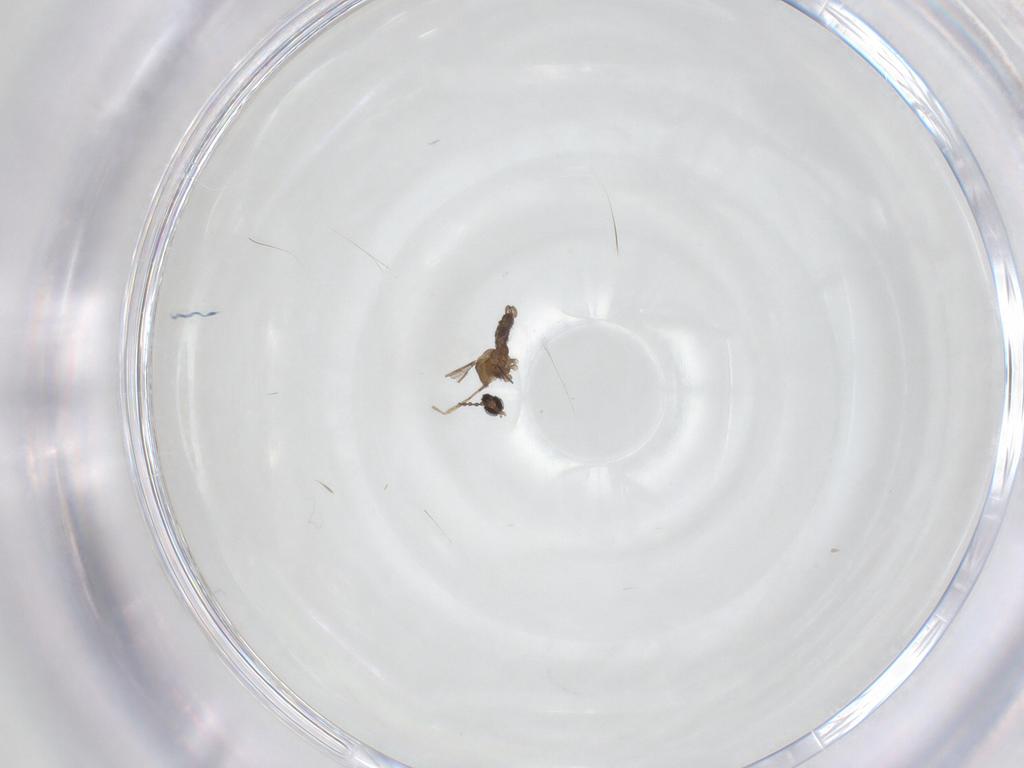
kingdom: Animalia
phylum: Arthropoda
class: Insecta
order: Diptera
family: Cecidomyiidae
